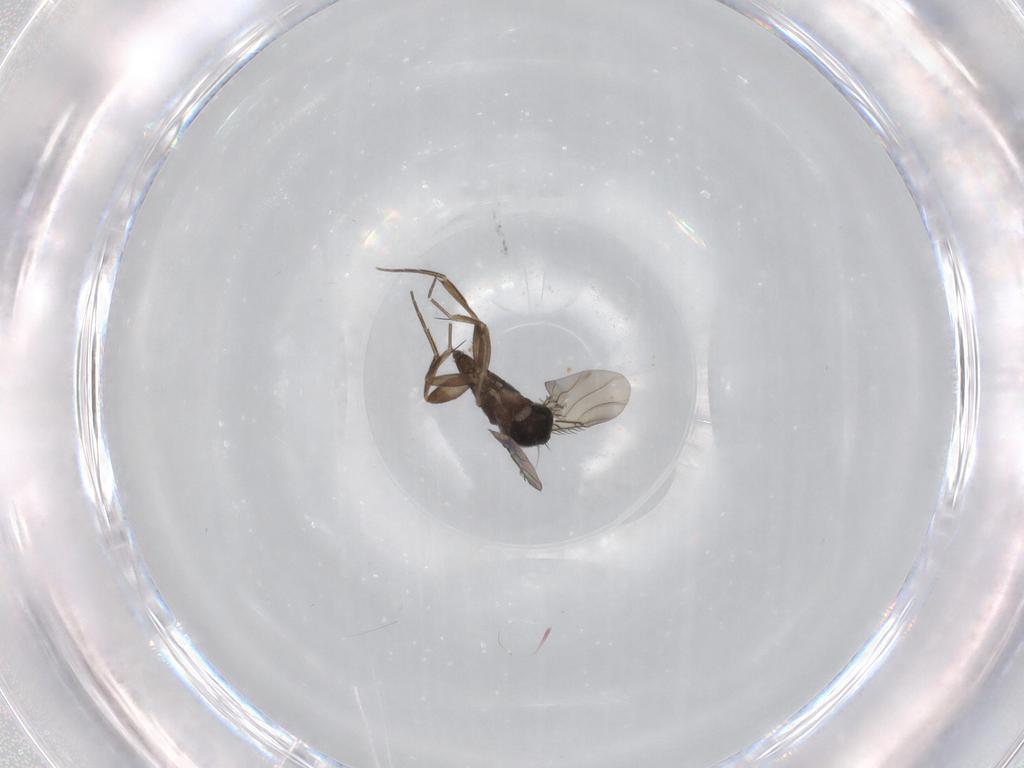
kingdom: Animalia
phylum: Arthropoda
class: Insecta
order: Diptera
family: Phoridae
